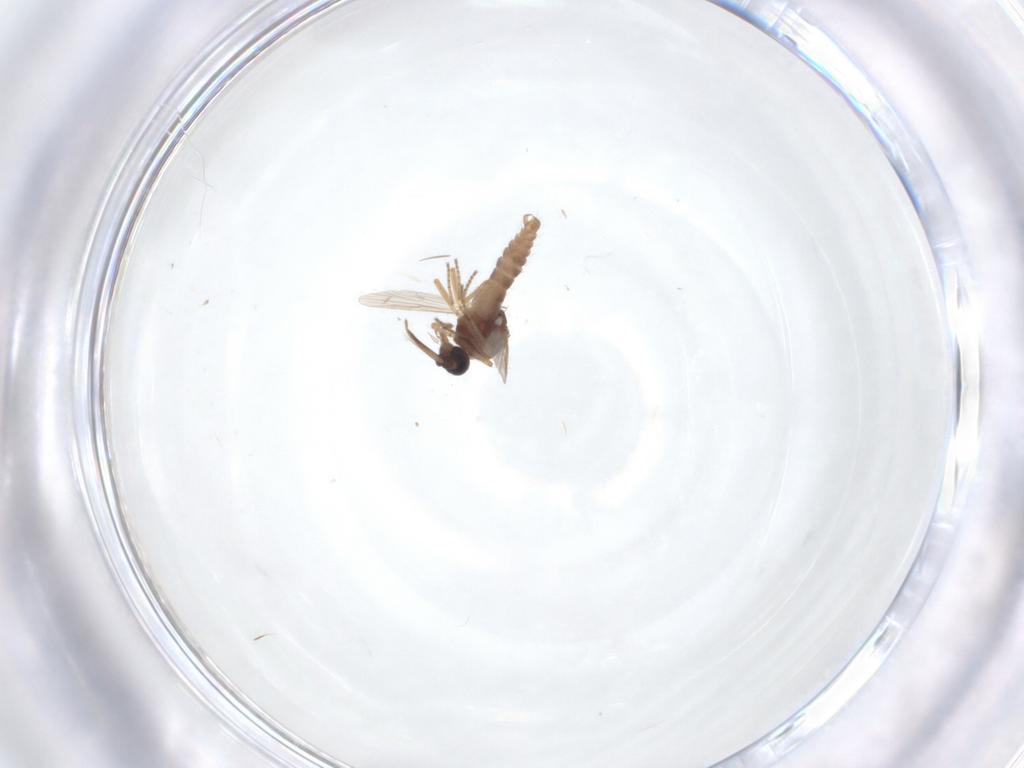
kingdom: Animalia
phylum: Arthropoda
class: Insecta
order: Diptera
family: Ceratopogonidae
